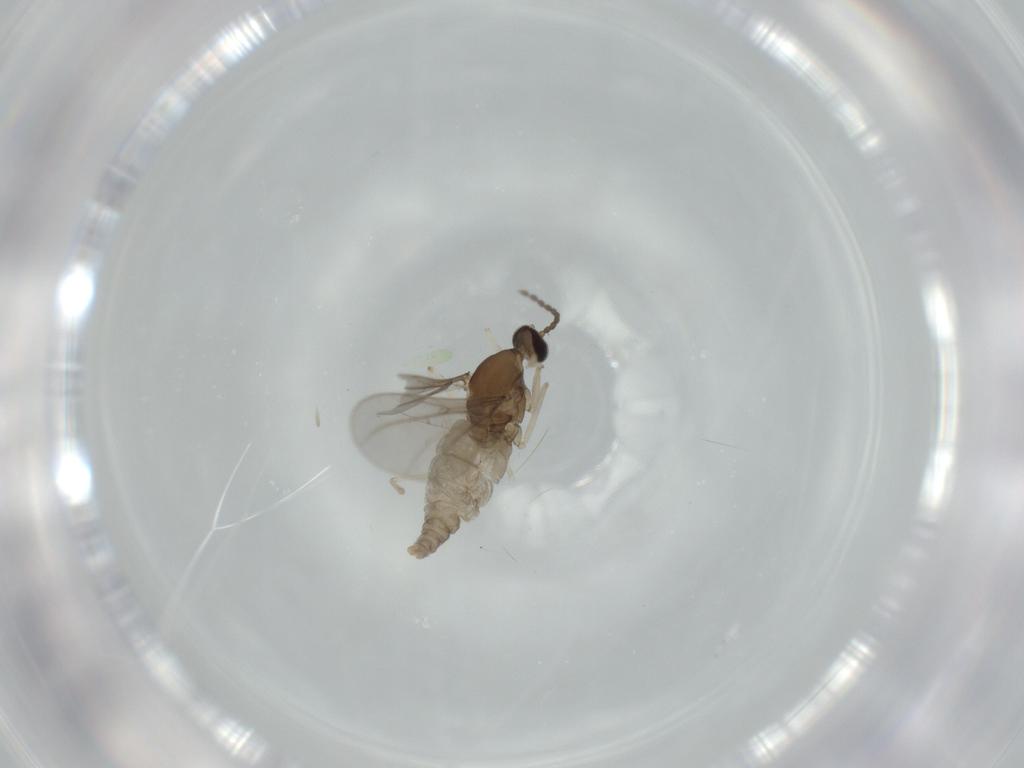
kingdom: Animalia
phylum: Arthropoda
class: Insecta
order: Diptera
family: Cecidomyiidae
